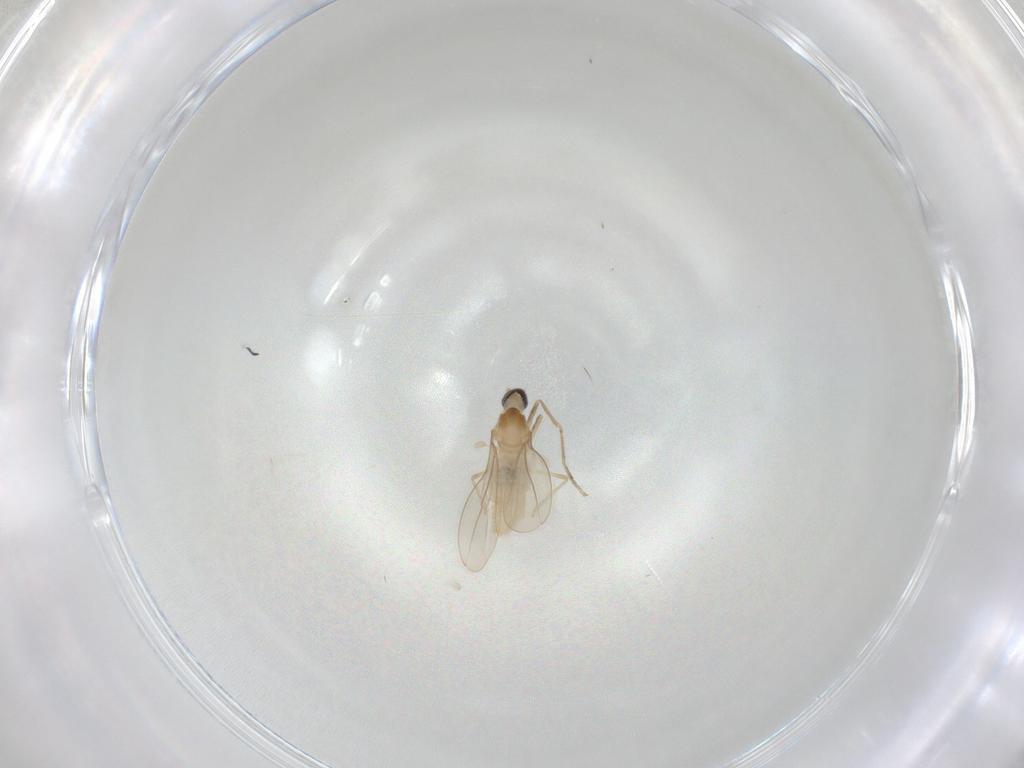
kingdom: Animalia
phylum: Arthropoda
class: Insecta
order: Diptera
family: Cecidomyiidae
